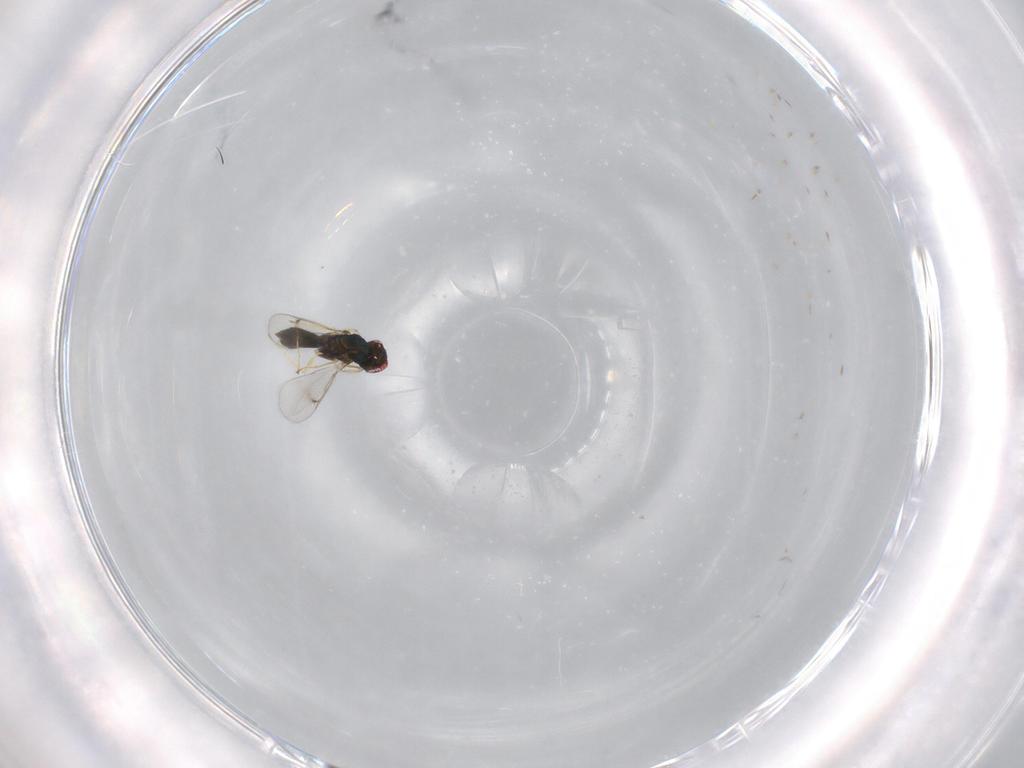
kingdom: Animalia
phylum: Arthropoda
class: Insecta
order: Hymenoptera
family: Eulophidae
